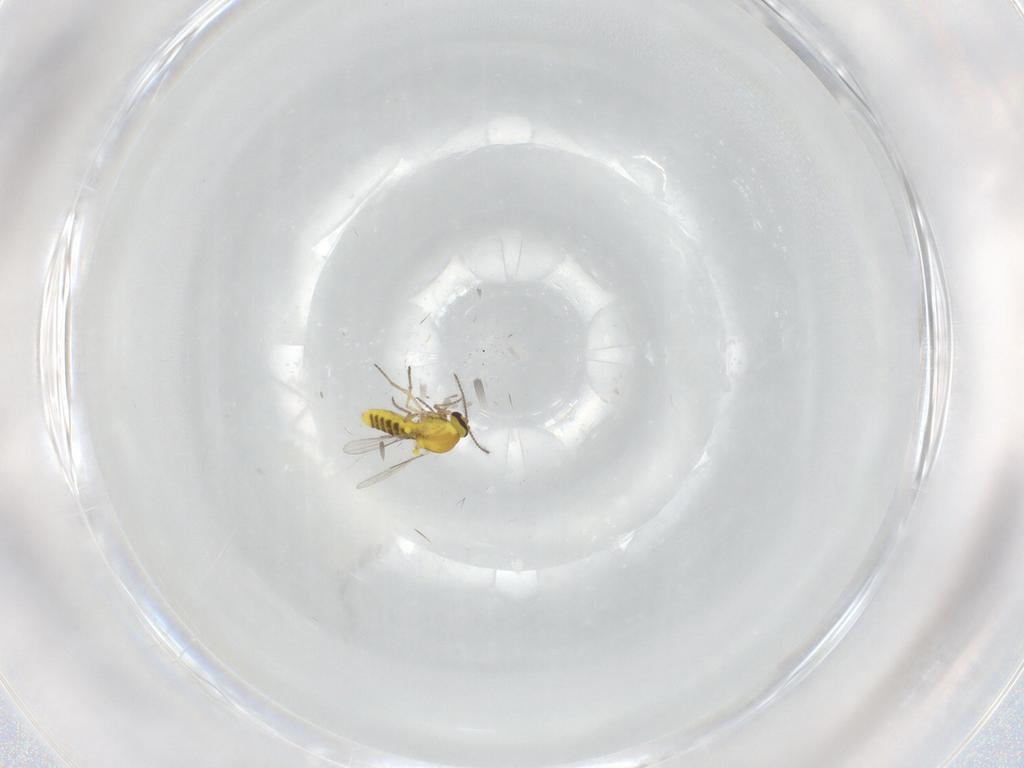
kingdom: Animalia
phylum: Arthropoda
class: Insecta
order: Diptera
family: Ceratopogonidae
